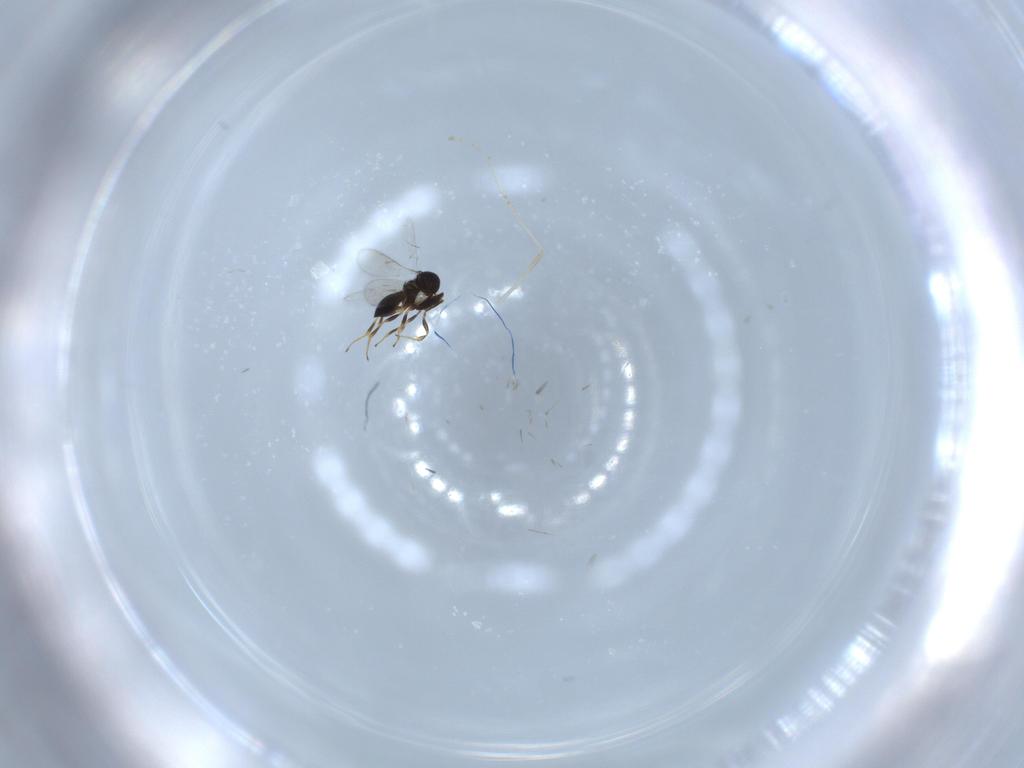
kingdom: Animalia
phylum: Arthropoda
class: Insecta
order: Hymenoptera
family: Scelionidae
